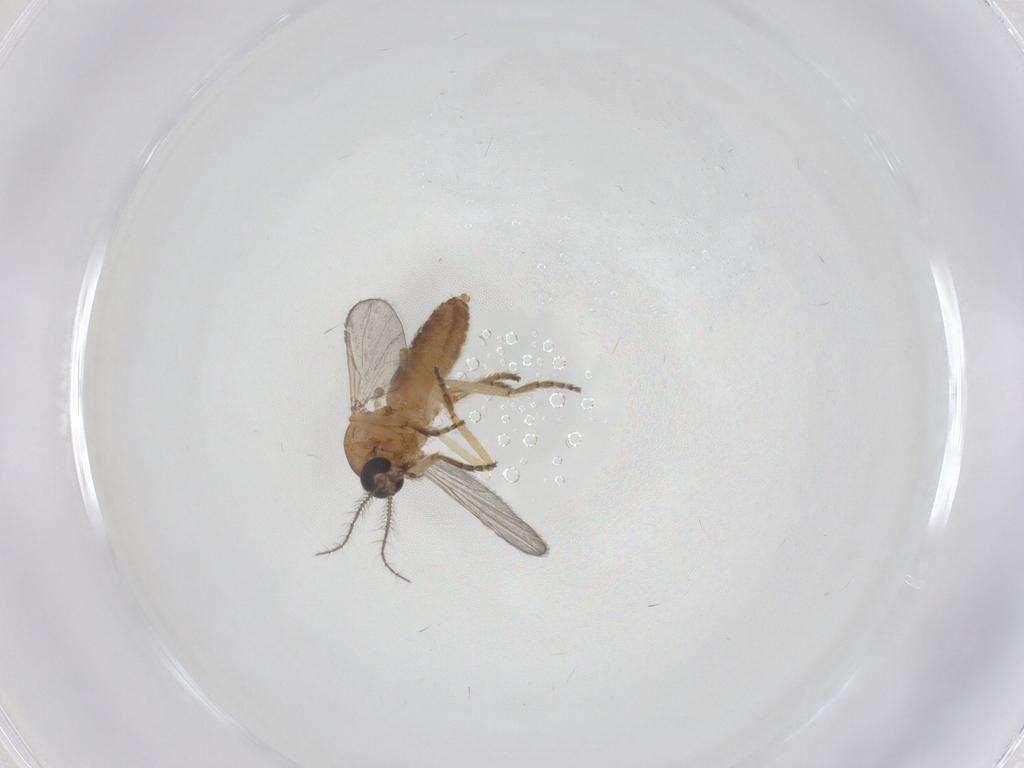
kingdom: Animalia
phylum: Arthropoda
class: Insecta
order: Diptera
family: Ceratopogonidae
